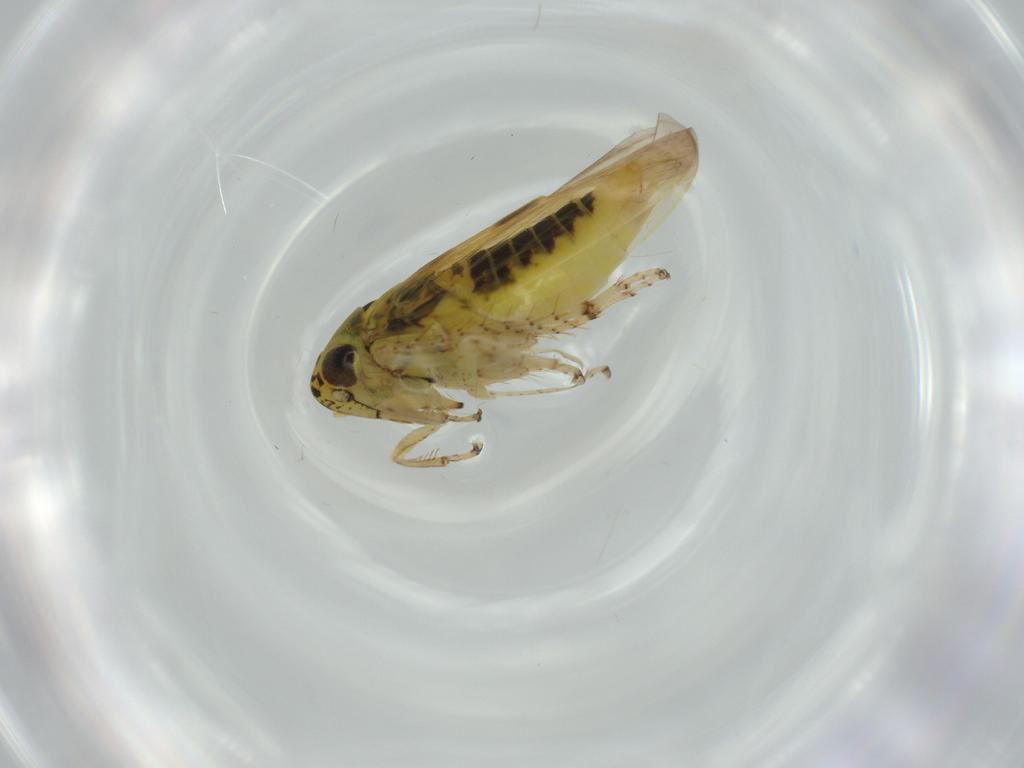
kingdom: Animalia
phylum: Arthropoda
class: Insecta
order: Hemiptera
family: Cicadellidae
